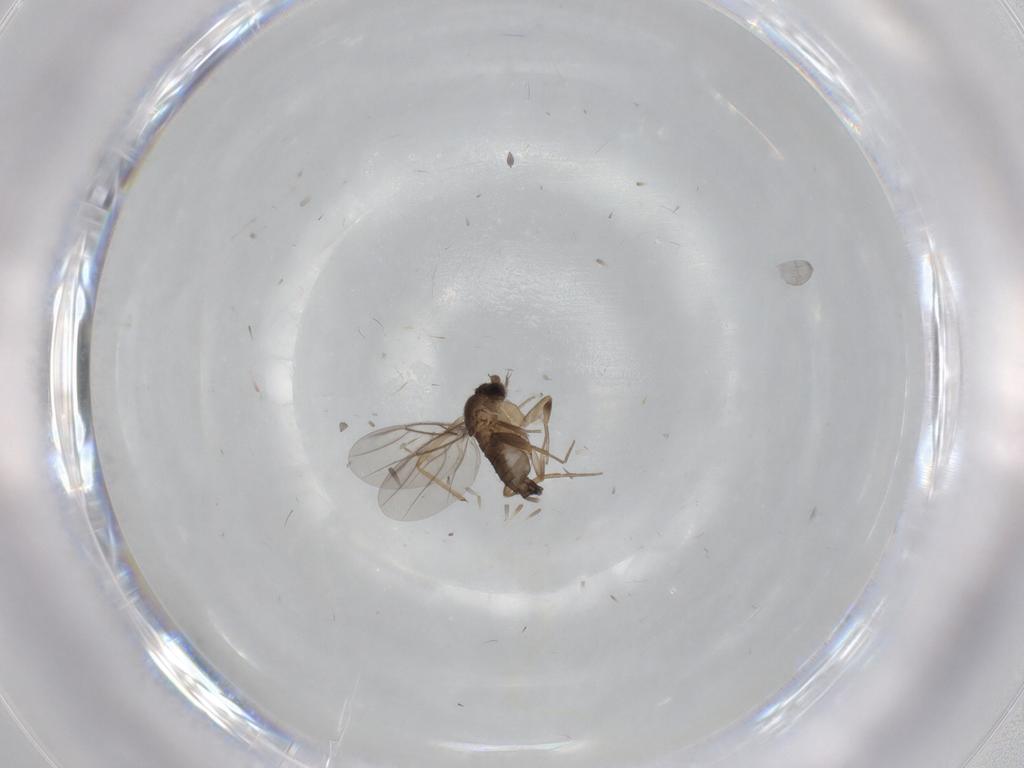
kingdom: Animalia
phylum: Arthropoda
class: Insecta
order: Diptera
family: Phoridae
